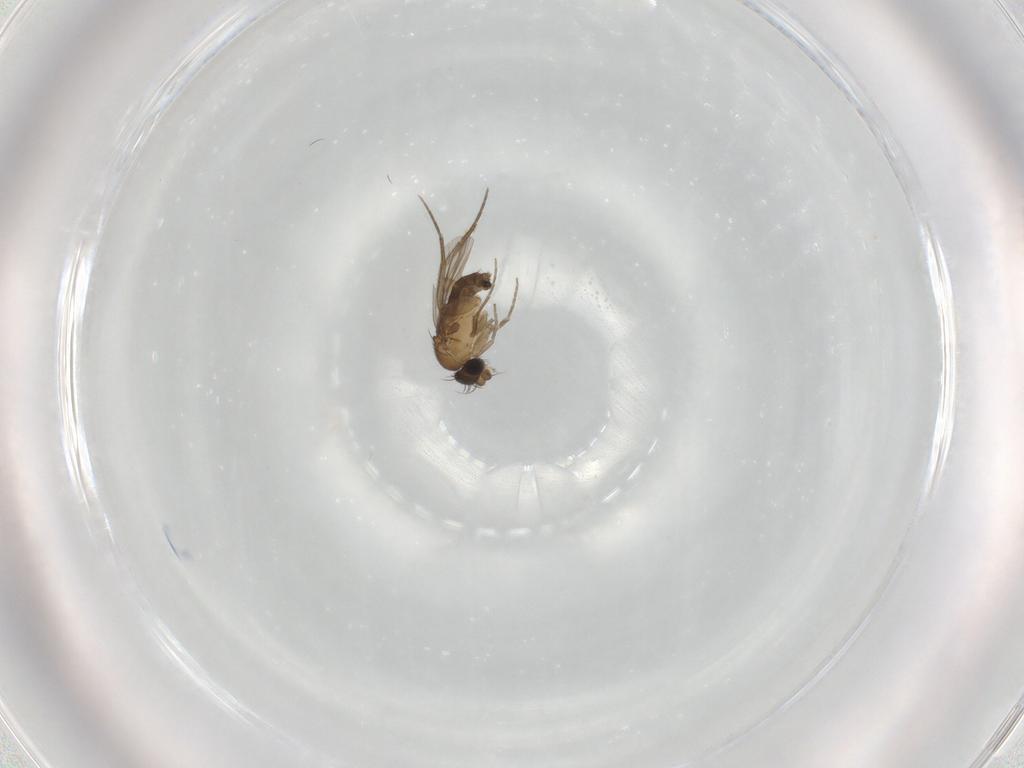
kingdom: Animalia
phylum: Arthropoda
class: Insecta
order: Diptera
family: Phoridae
